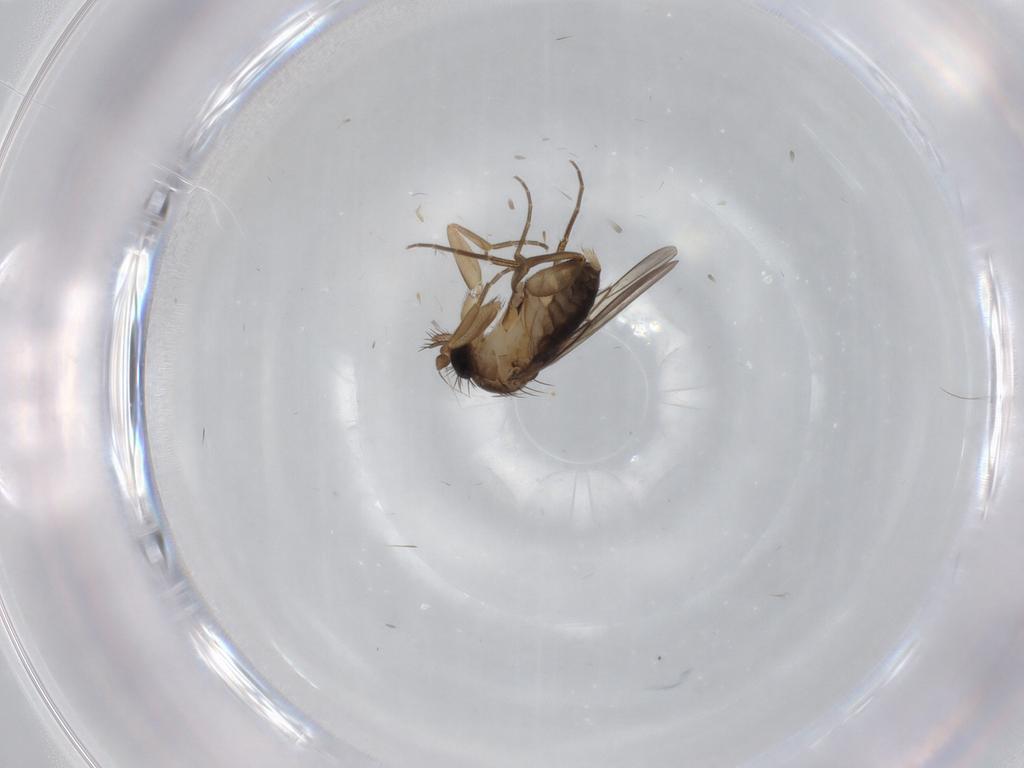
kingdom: Animalia
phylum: Arthropoda
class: Insecta
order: Diptera
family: Phoridae
